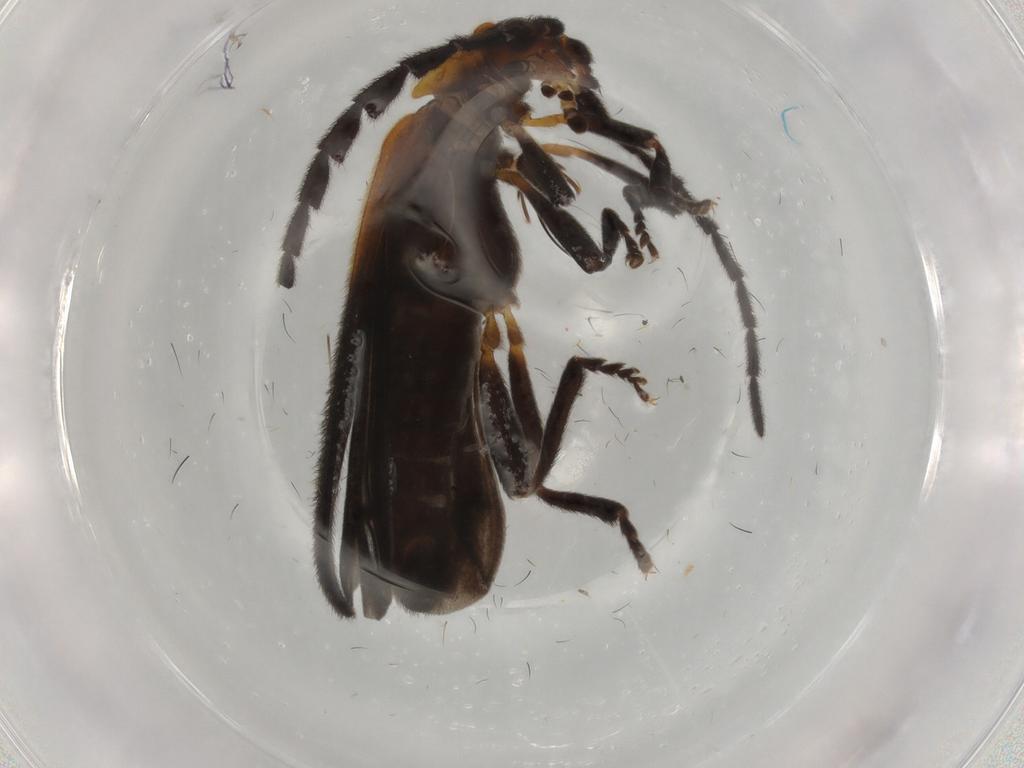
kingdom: Animalia
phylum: Arthropoda
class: Insecta
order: Coleoptera
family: Lycidae
